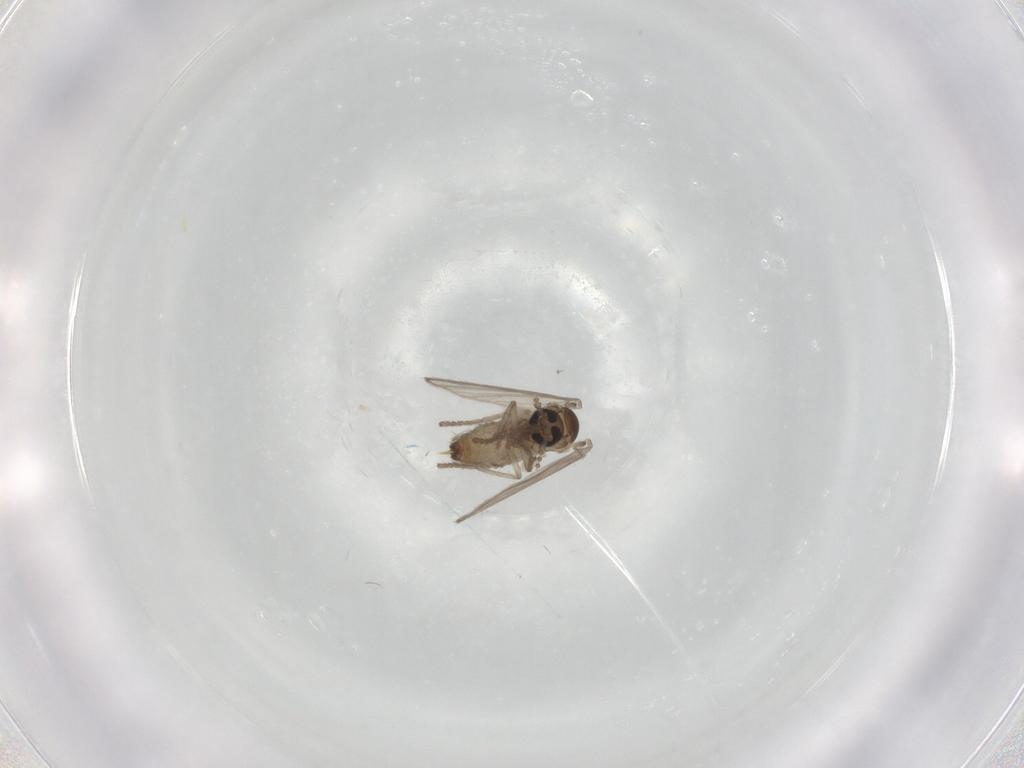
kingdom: Animalia
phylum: Arthropoda
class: Insecta
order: Diptera
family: Psychodidae
